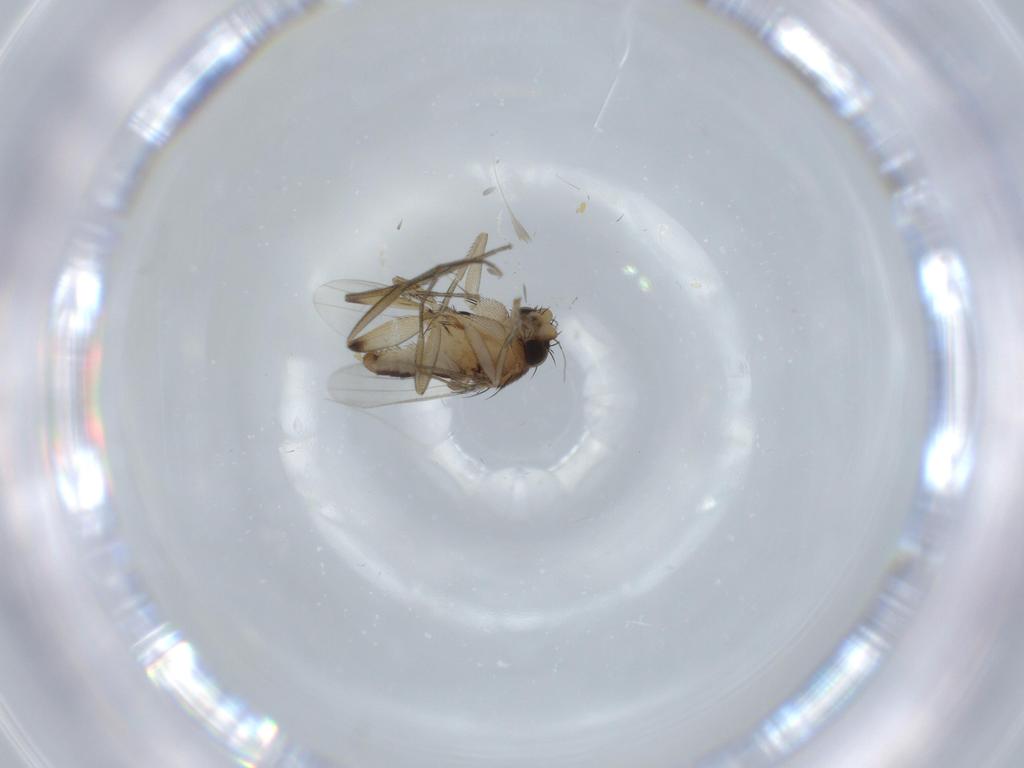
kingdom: Animalia
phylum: Arthropoda
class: Insecta
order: Diptera
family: Phoridae
